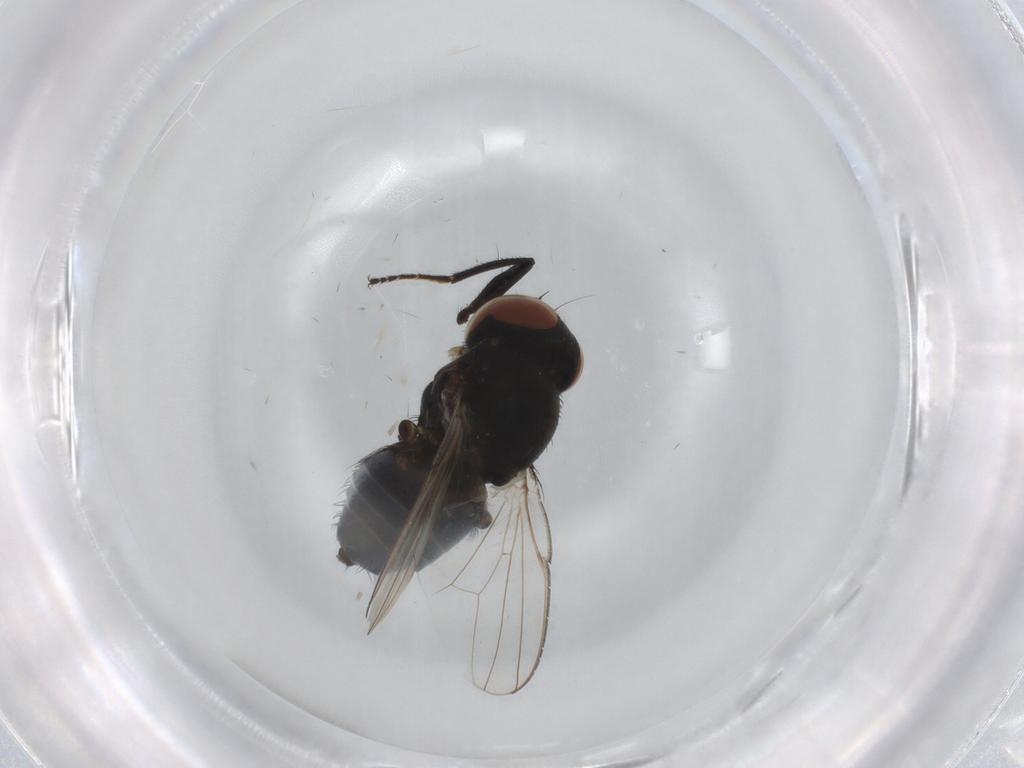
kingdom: Animalia
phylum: Arthropoda
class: Insecta
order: Diptera
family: Milichiidae
